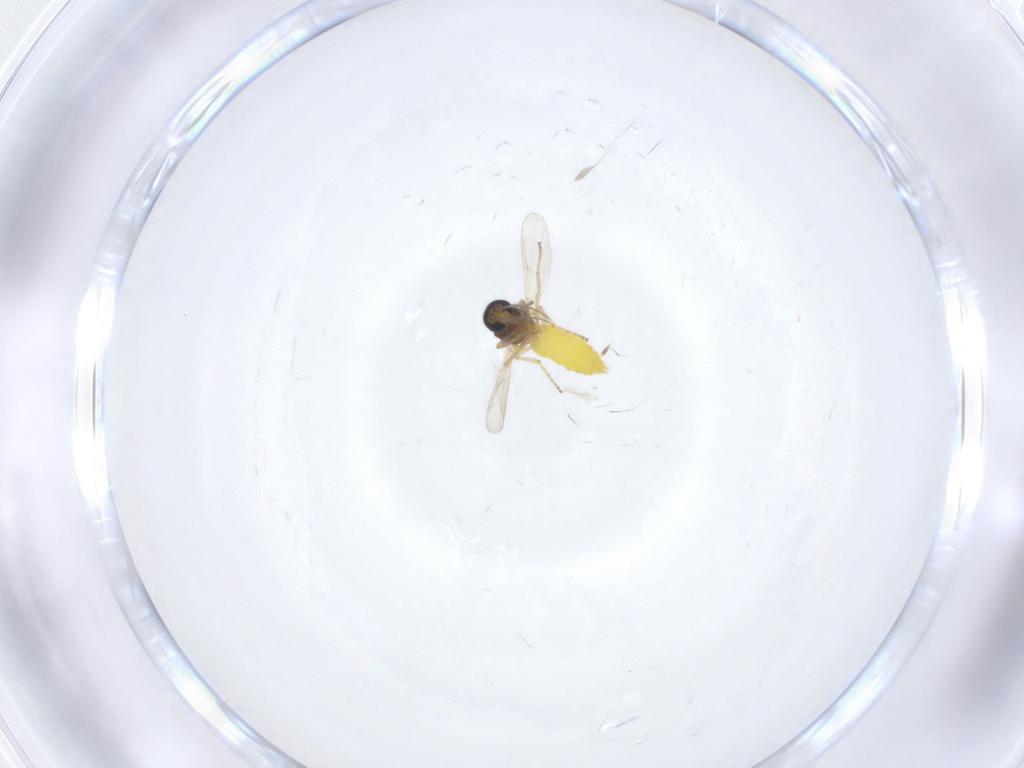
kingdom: Animalia
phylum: Arthropoda
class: Insecta
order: Diptera
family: Ceratopogonidae
